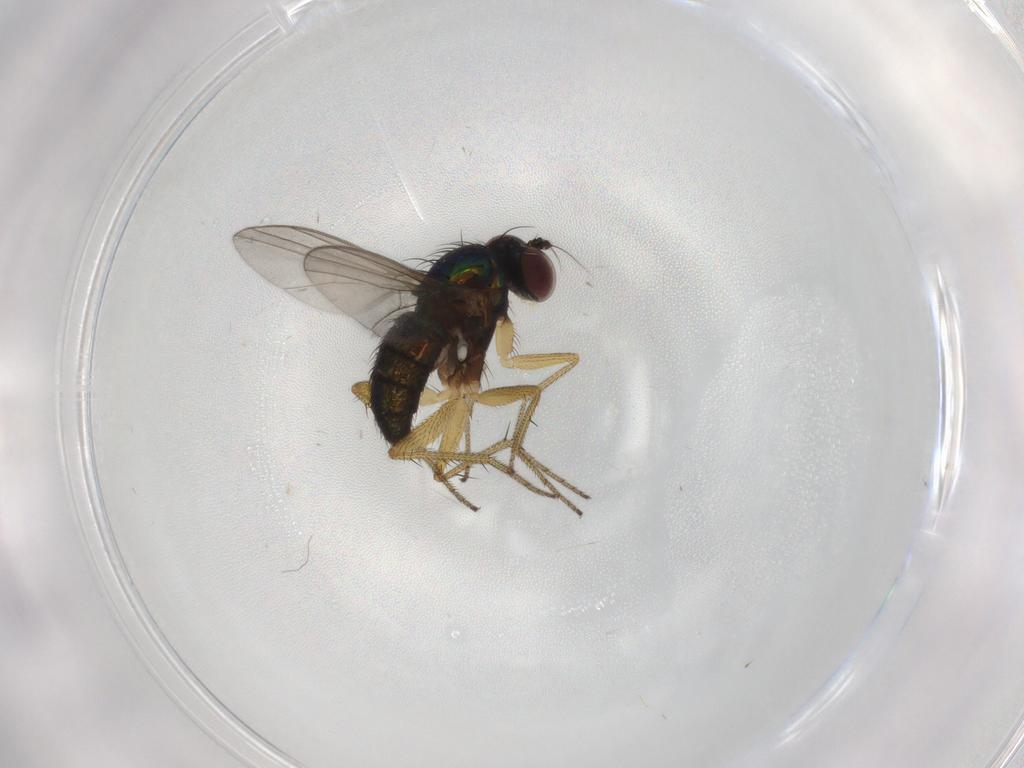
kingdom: Animalia
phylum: Arthropoda
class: Insecta
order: Diptera
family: Dolichopodidae
